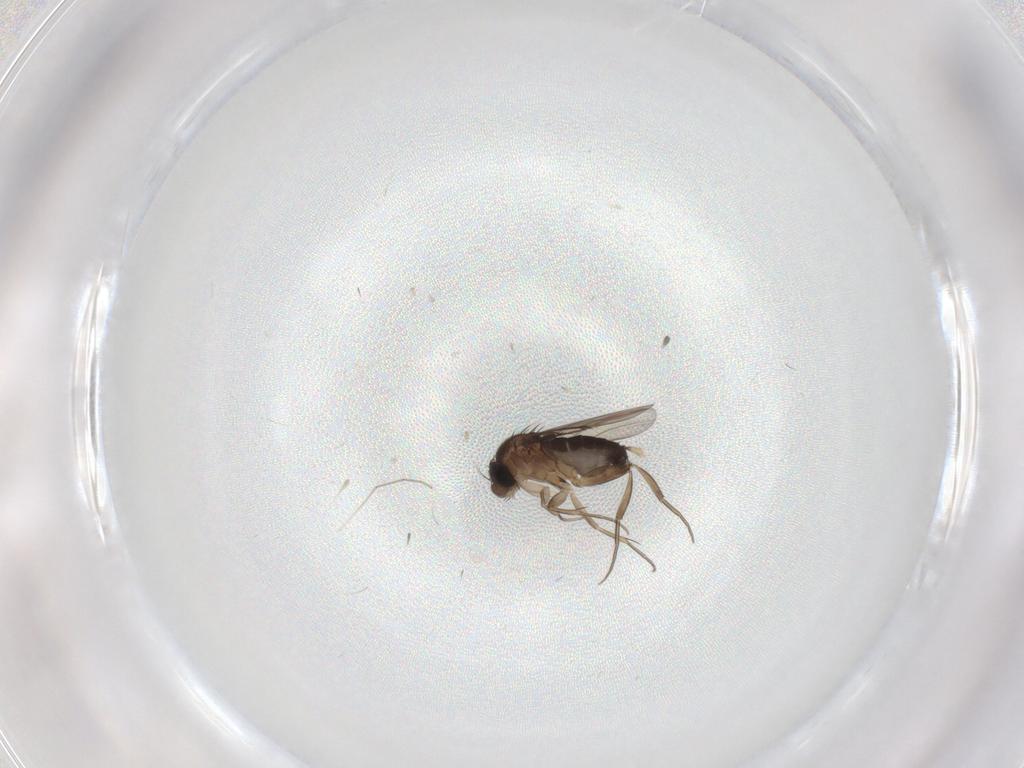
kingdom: Animalia
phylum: Arthropoda
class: Insecta
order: Diptera
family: Phoridae
